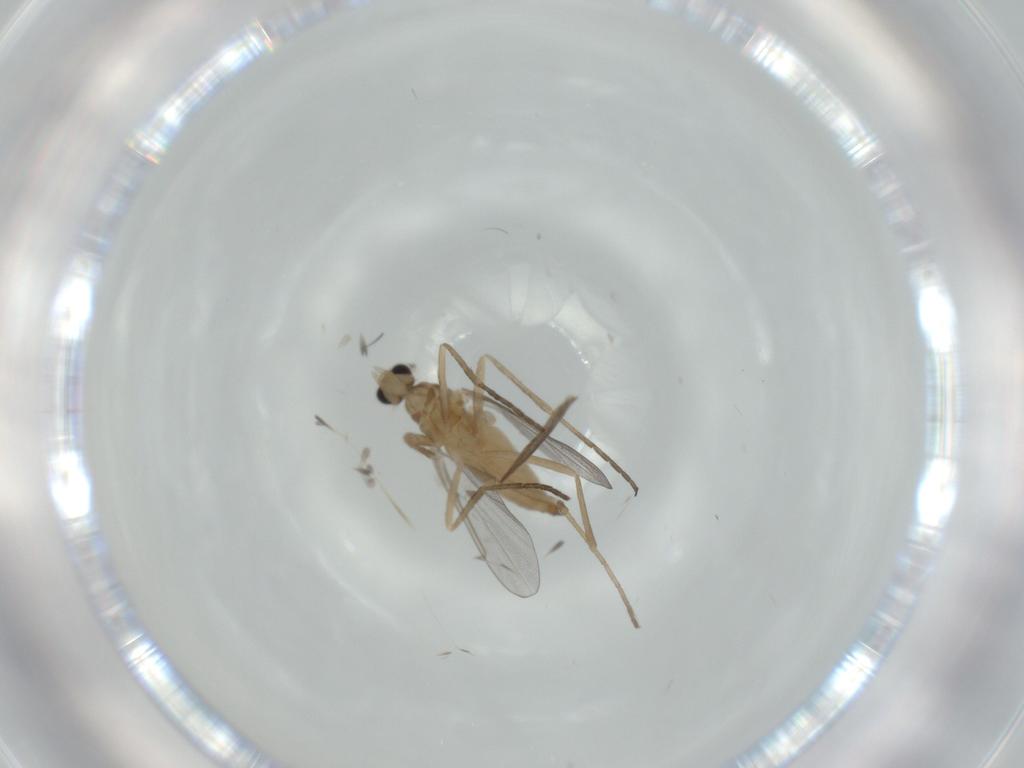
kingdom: Animalia
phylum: Arthropoda
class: Insecta
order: Diptera
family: Cecidomyiidae
